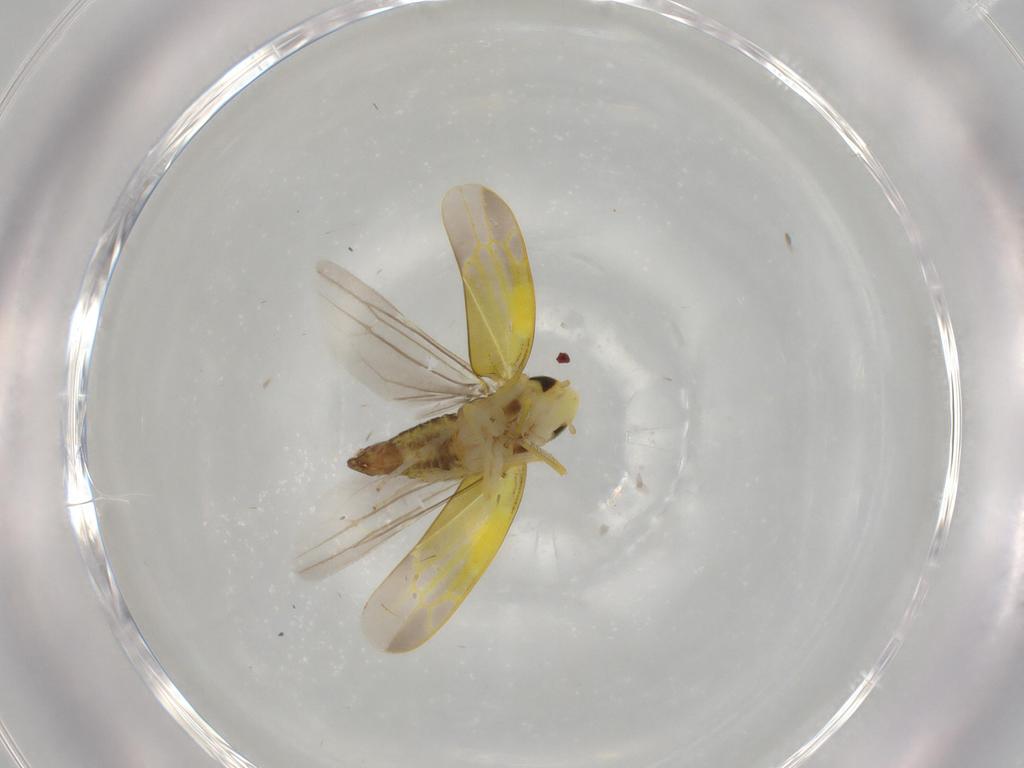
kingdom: Animalia
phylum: Arthropoda
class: Insecta
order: Hemiptera
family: Cicadellidae
